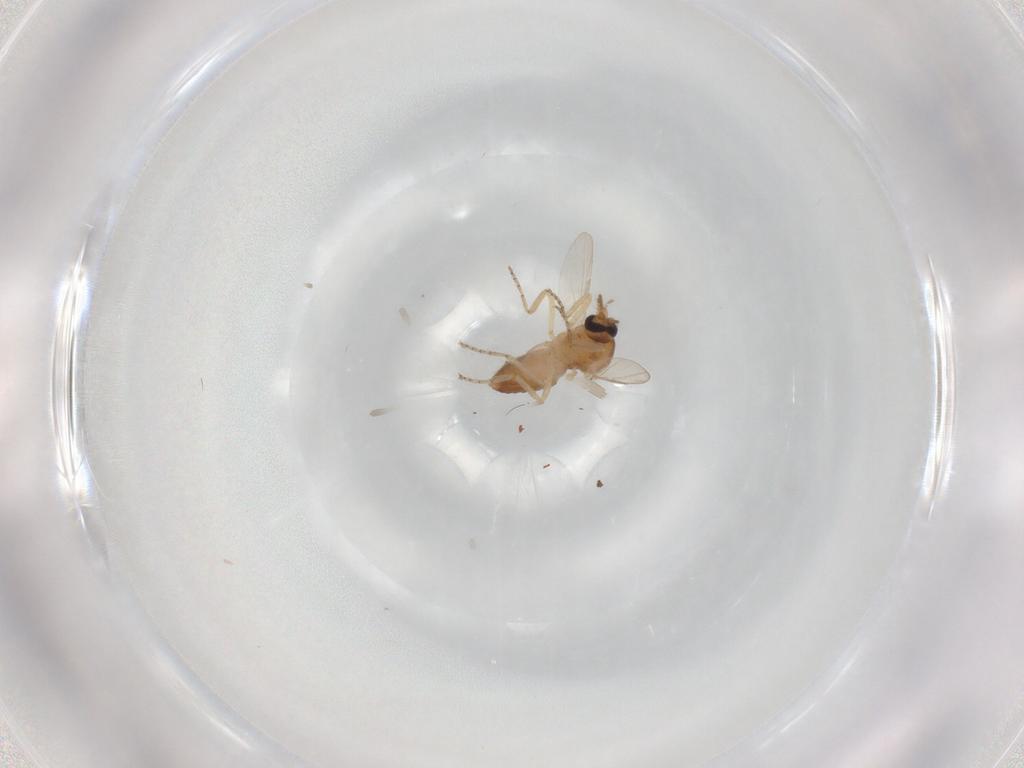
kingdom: Animalia
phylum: Arthropoda
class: Insecta
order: Diptera
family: Ceratopogonidae
